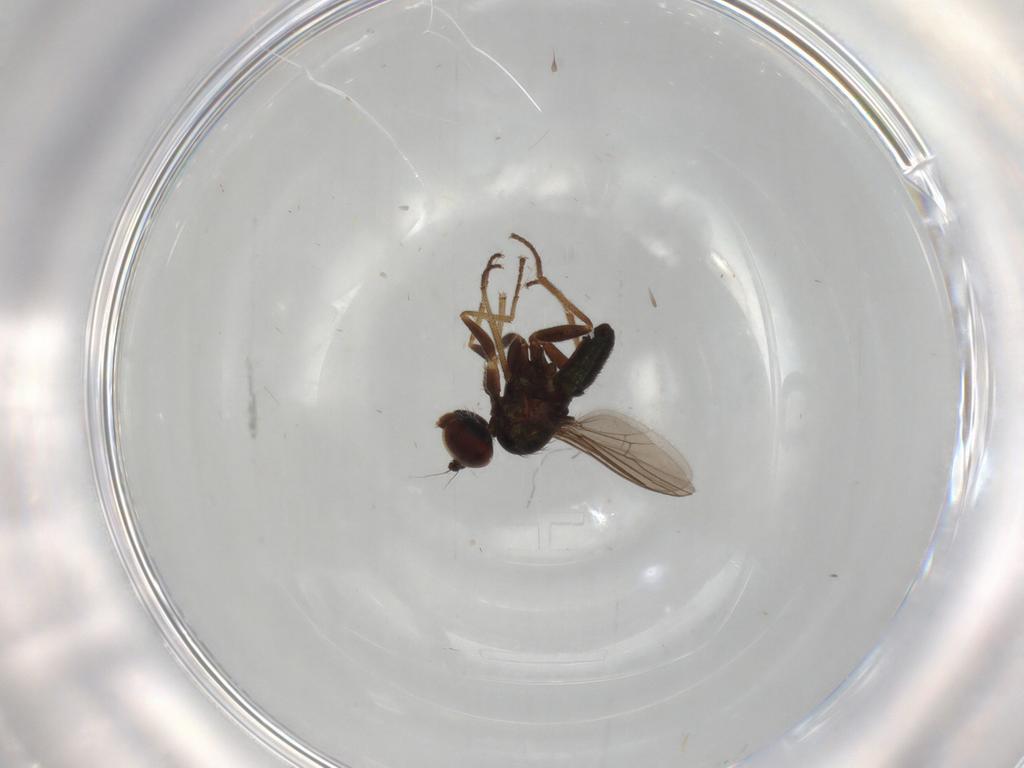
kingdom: Animalia
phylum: Arthropoda
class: Insecta
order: Diptera
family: Dolichopodidae
